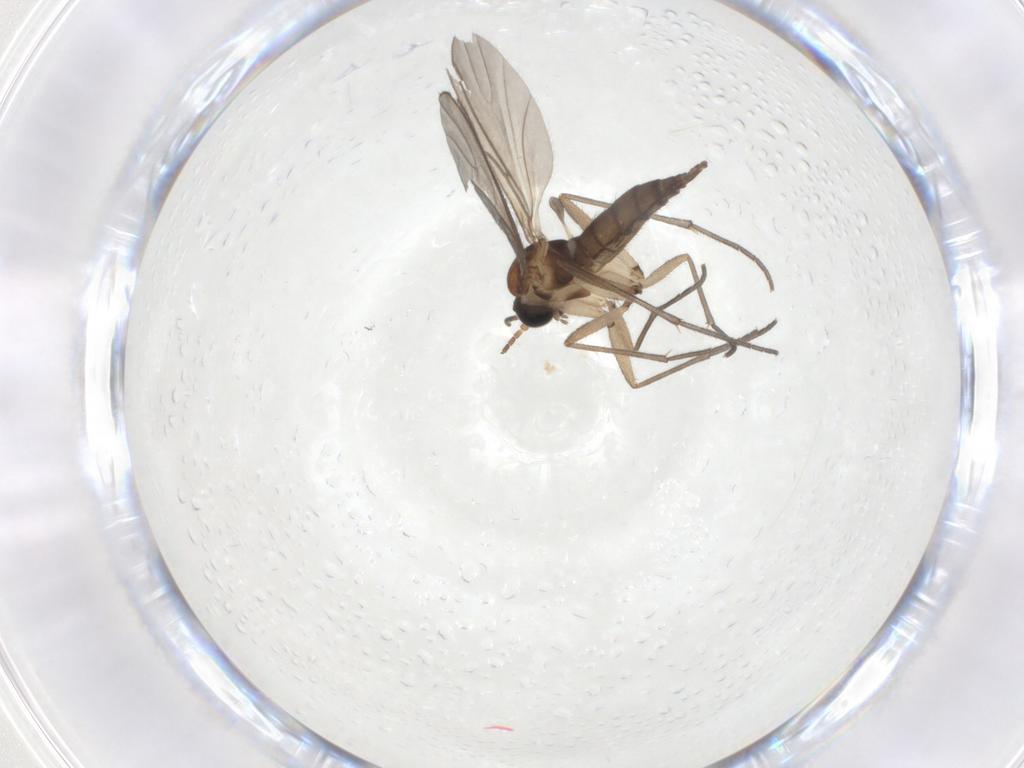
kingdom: Animalia
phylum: Arthropoda
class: Insecta
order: Diptera
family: Sciaridae
